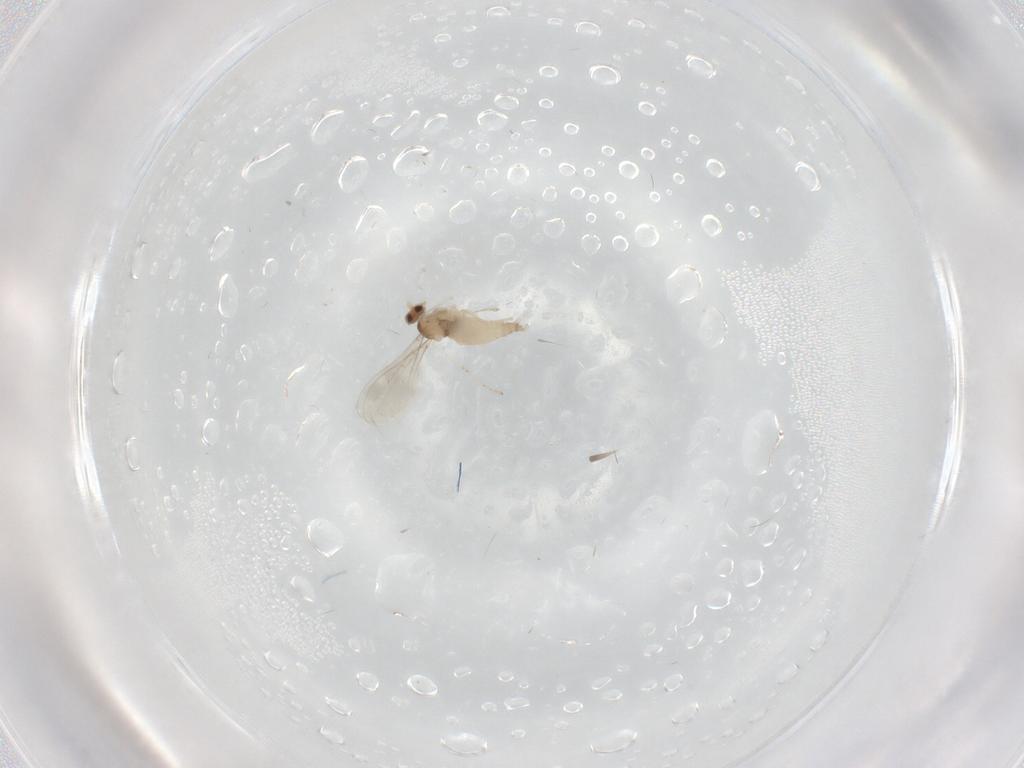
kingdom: Animalia
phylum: Arthropoda
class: Insecta
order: Diptera
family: Cecidomyiidae
